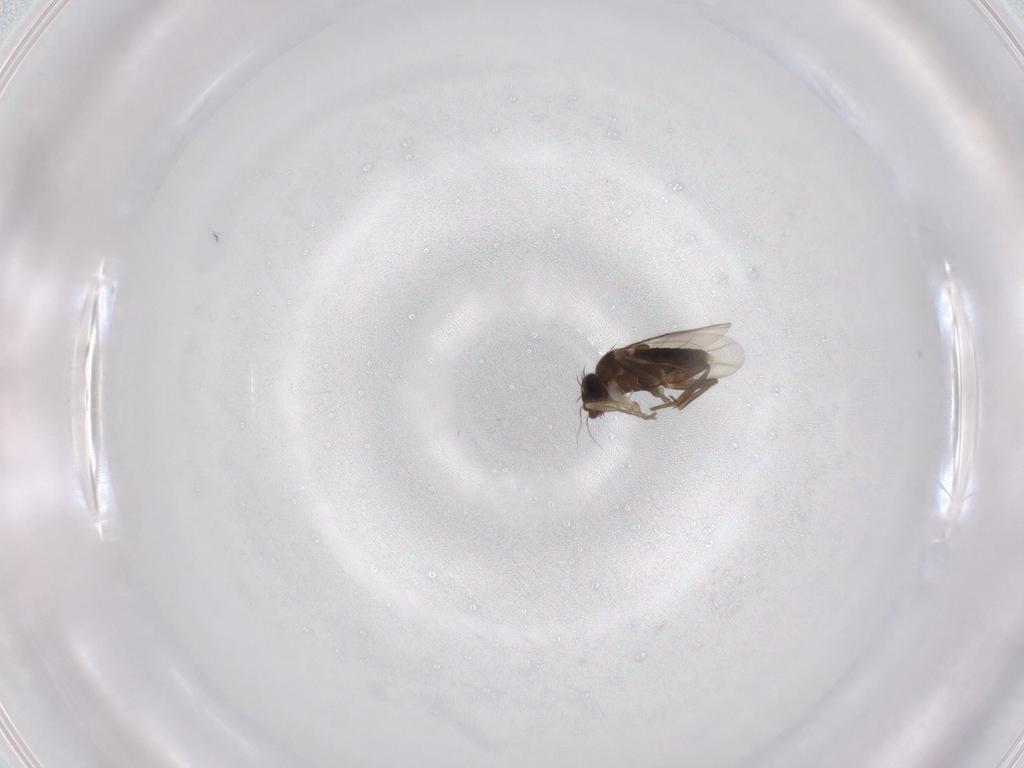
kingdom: Animalia
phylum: Arthropoda
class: Insecta
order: Diptera
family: Phoridae
